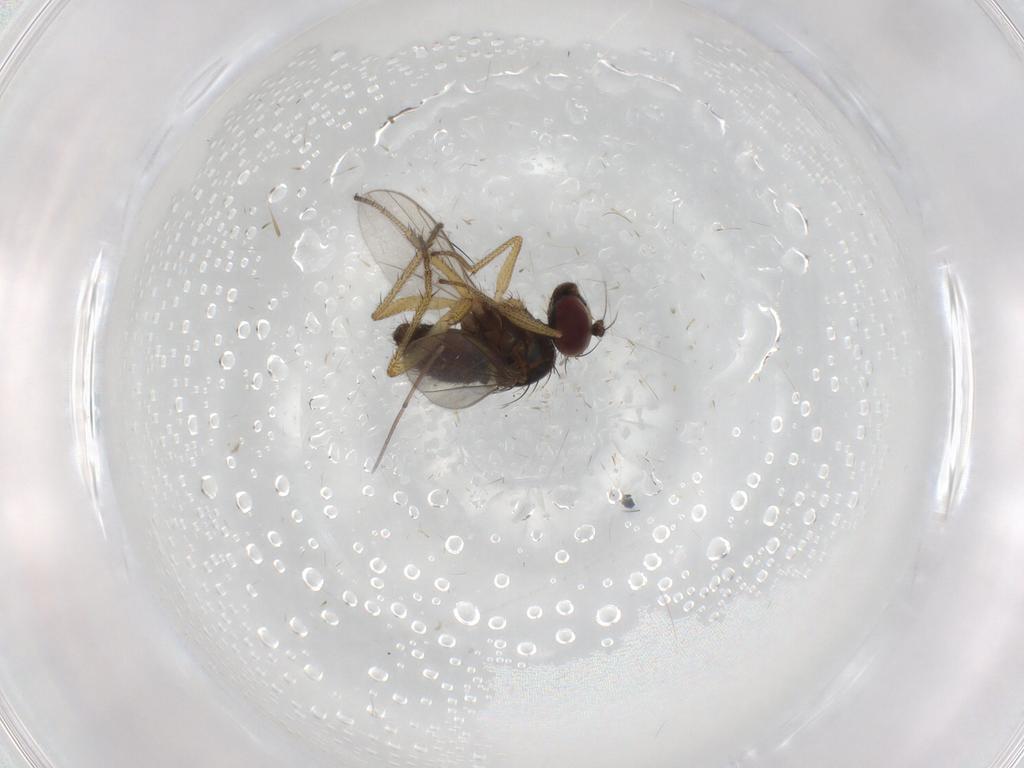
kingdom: Animalia
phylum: Arthropoda
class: Insecta
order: Diptera
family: Dolichopodidae
